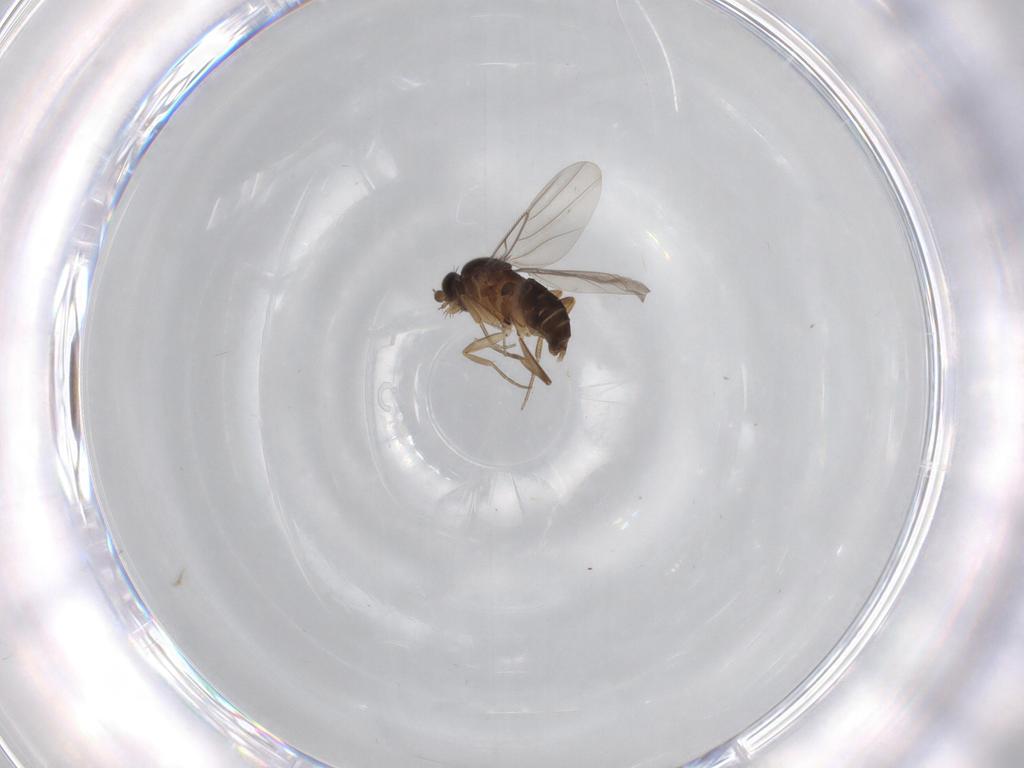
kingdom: Animalia
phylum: Arthropoda
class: Insecta
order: Diptera
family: Phoridae
